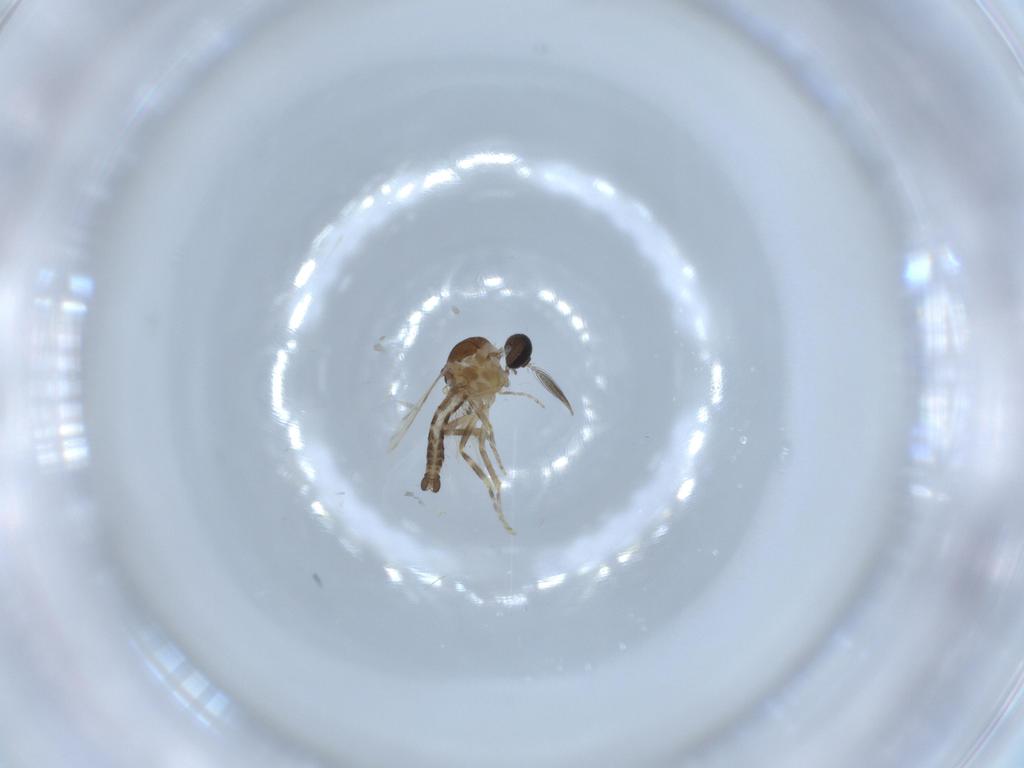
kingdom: Animalia
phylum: Arthropoda
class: Insecta
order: Diptera
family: Ceratopogonidae
